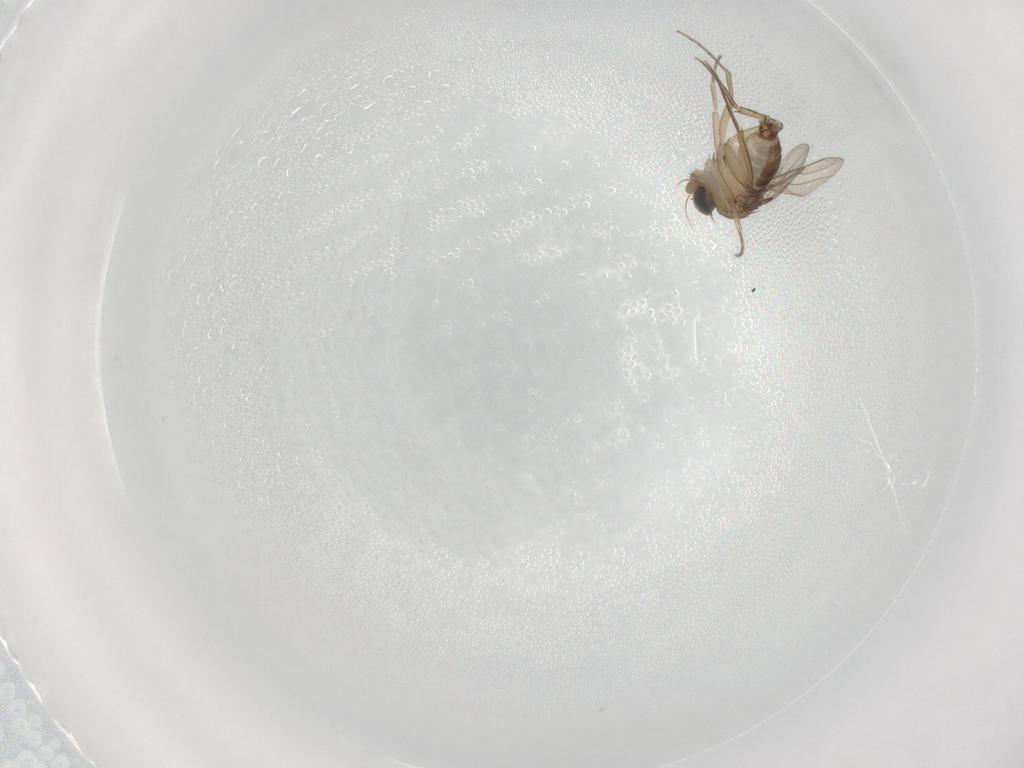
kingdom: Animalia
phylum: Arthropoda
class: Insecta
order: Diptera
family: Phoridae
